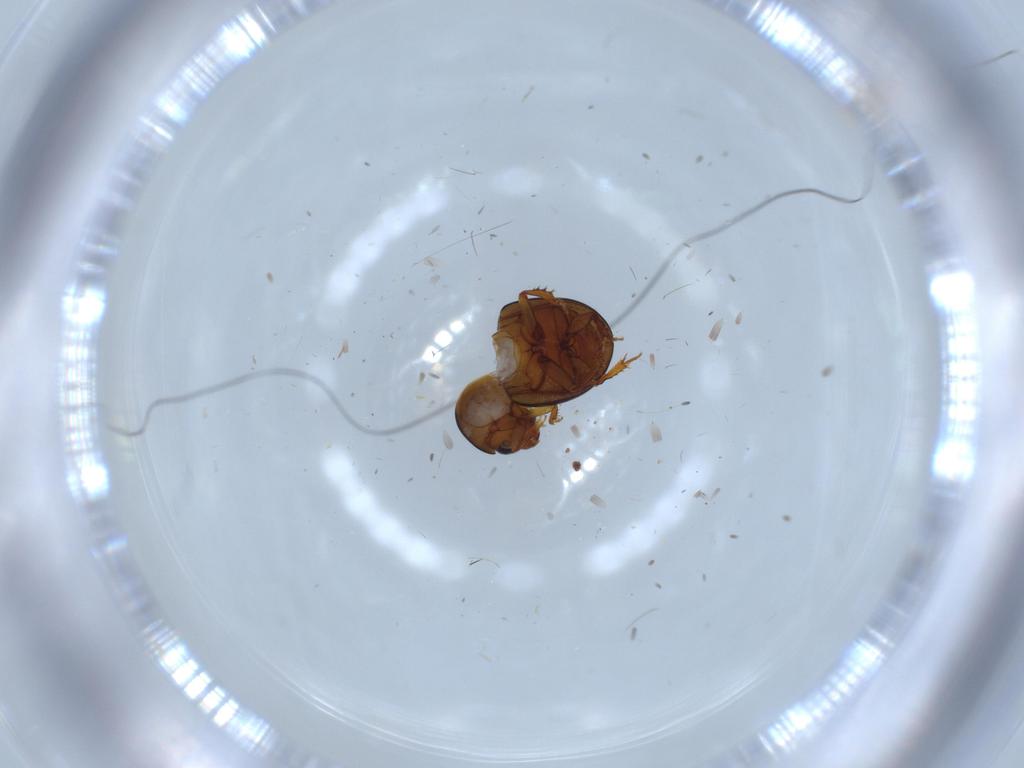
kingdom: Animalia
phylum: Arthropoda
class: Insecta
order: Coleoptera
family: Leiodidae
